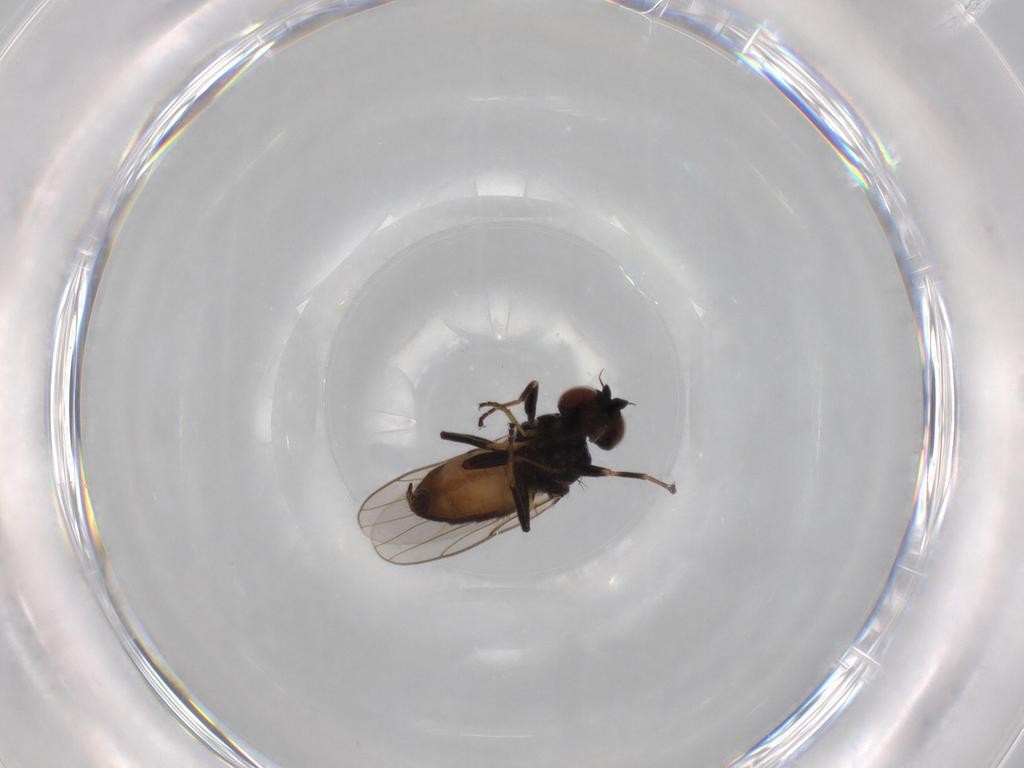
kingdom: Animalia
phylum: Arthropoda
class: Insecta
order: Diptera
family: Chloropidae
